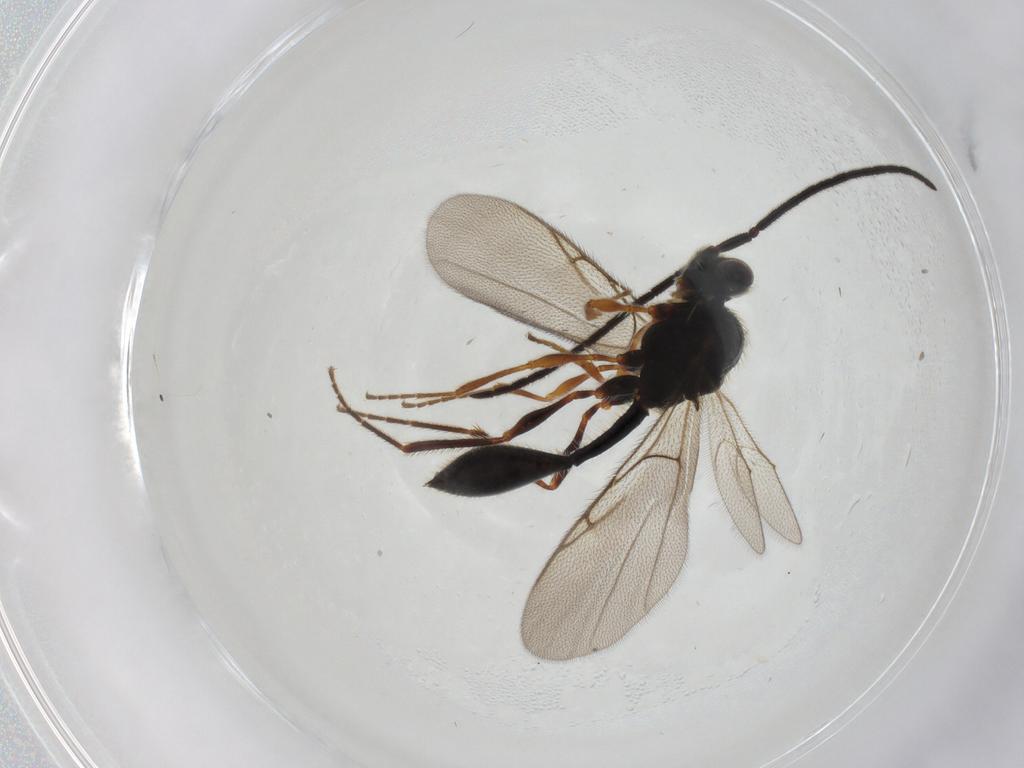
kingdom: Animalia
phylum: Arthropoda
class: Insecta
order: Hymenoptera
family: Diapriidae
